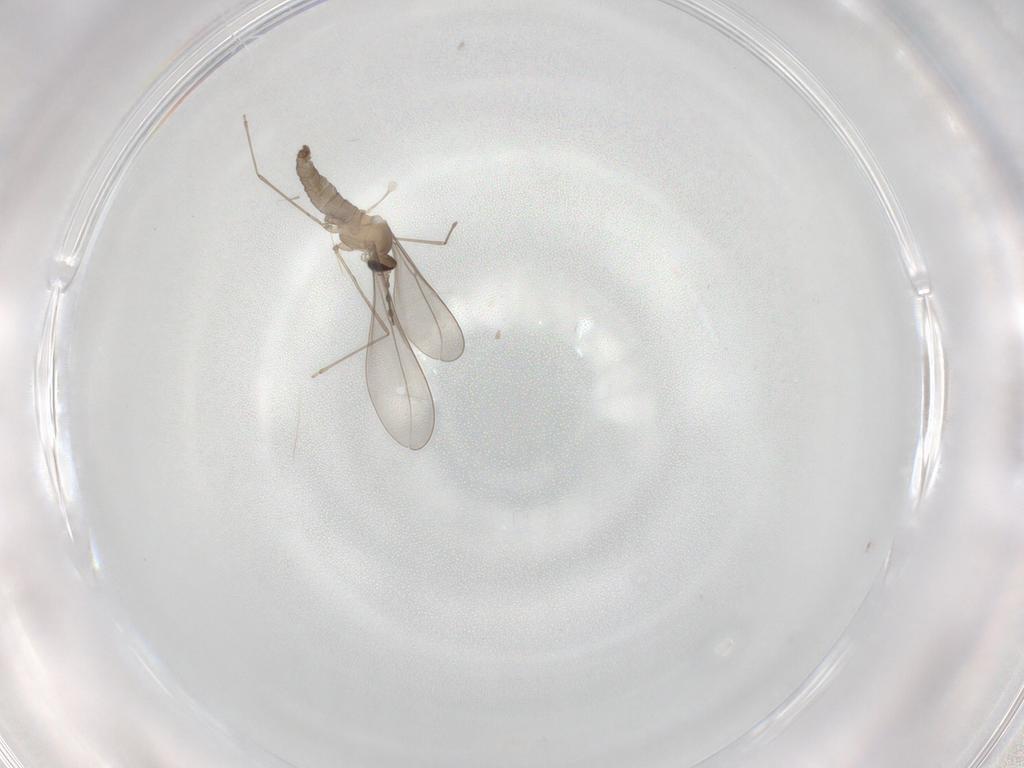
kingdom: Animalia
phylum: Arthropoda
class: Insecta
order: Diptera
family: Cecidomyiidae
